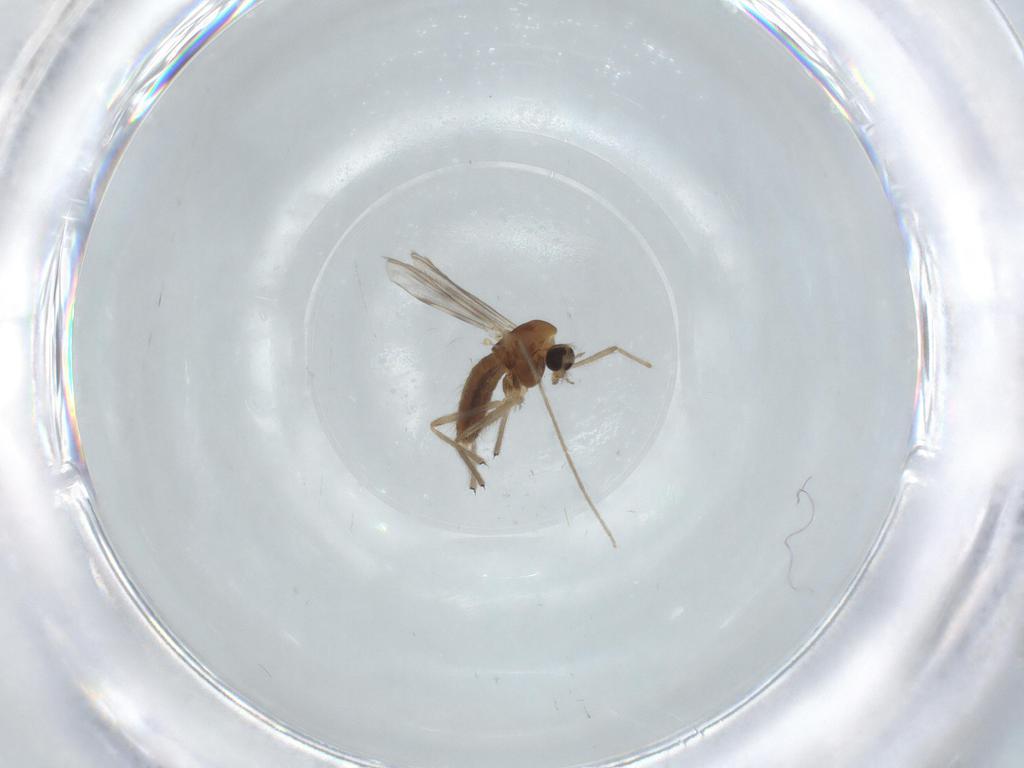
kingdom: Animalia
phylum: Arthropoda
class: Insecta
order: Diptera
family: Chironomidae
